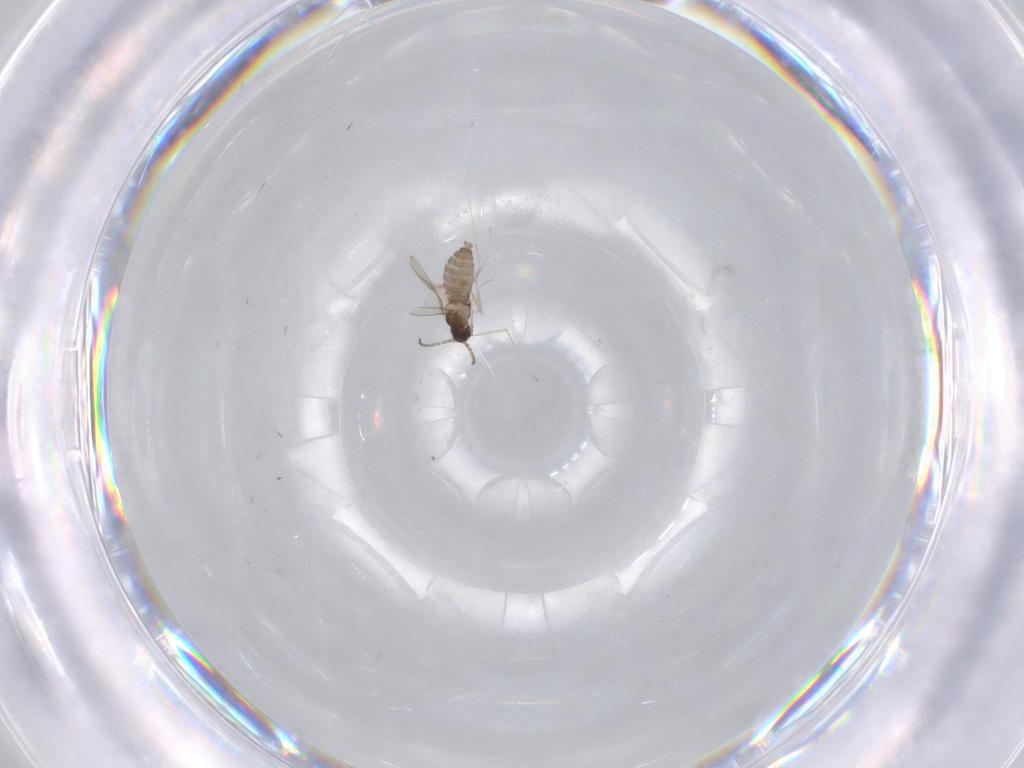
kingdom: Animalia
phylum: Arthropoda
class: Insecta
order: Diptera
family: Cecidomyiidae
